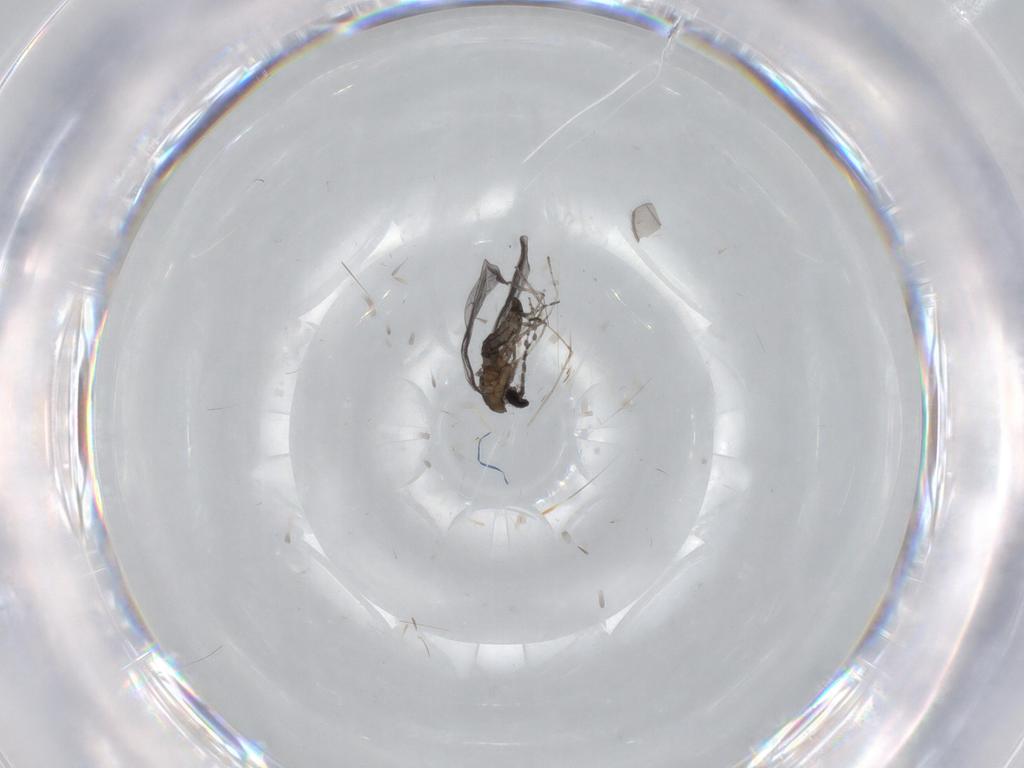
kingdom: Animalia
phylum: Arthropoda
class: Insecta
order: Diptera
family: Cecidomyiidae
